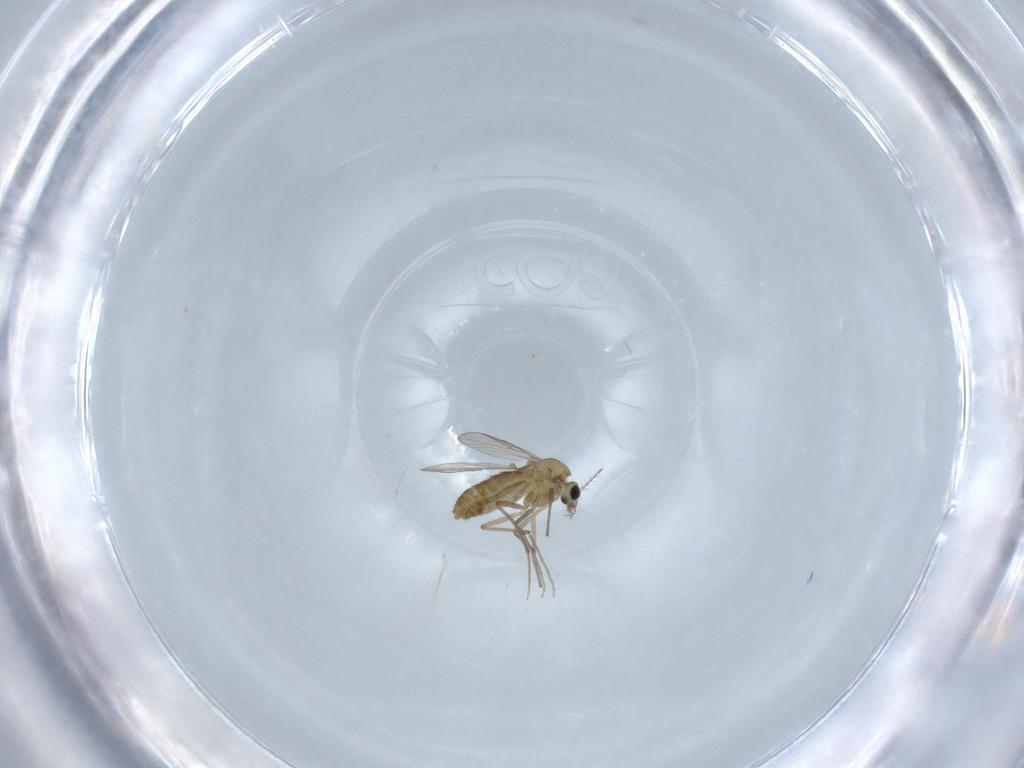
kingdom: Animalia
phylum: Arthropoda
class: Insecta
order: Diptera
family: Chironomidae
